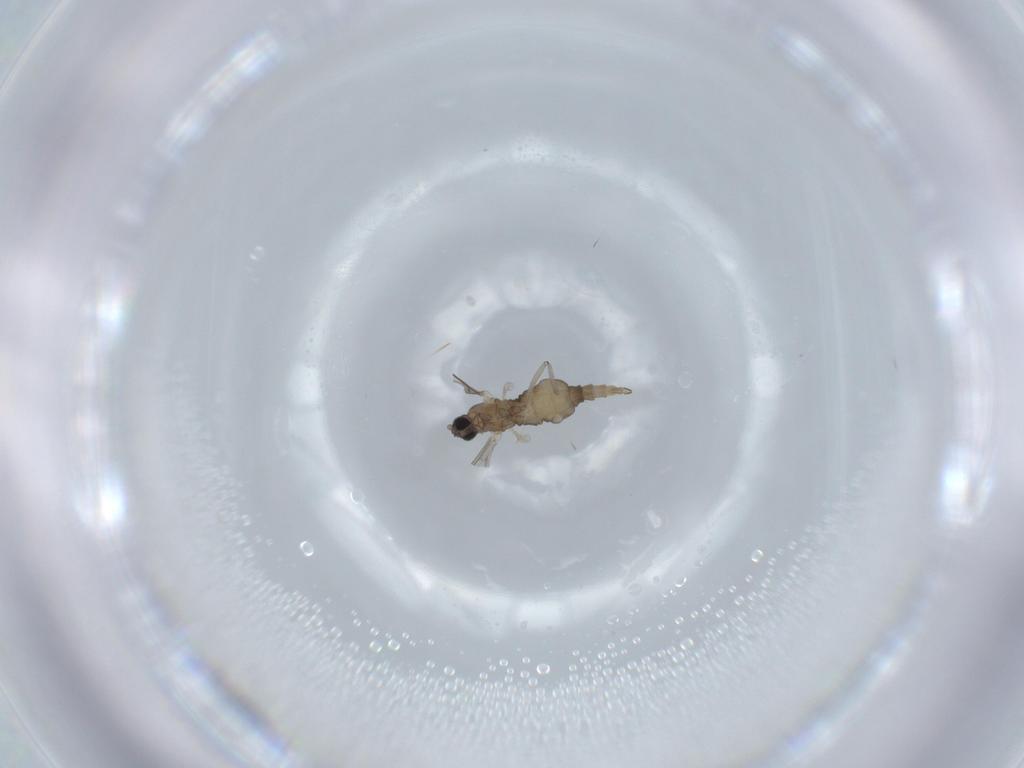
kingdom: Animalia
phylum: Arthropoda
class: Insecta
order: Diptera
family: Cecidomyiidae
